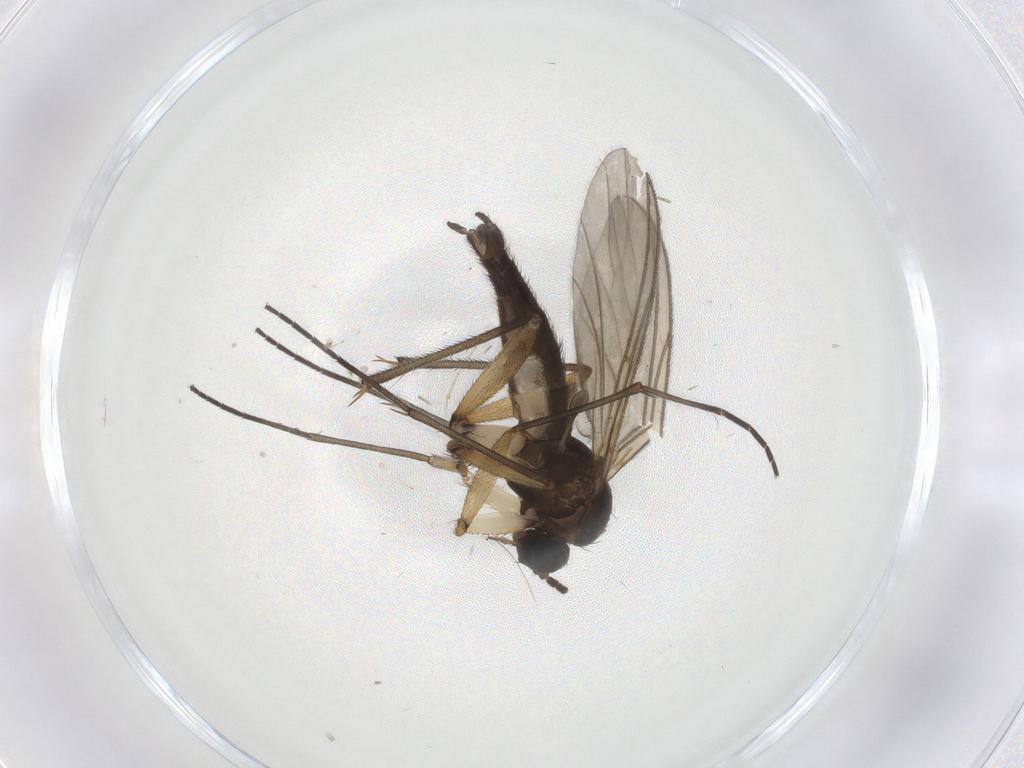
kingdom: Animalia
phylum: Arthropoda
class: Insecta
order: Diptera
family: Sciaridae
